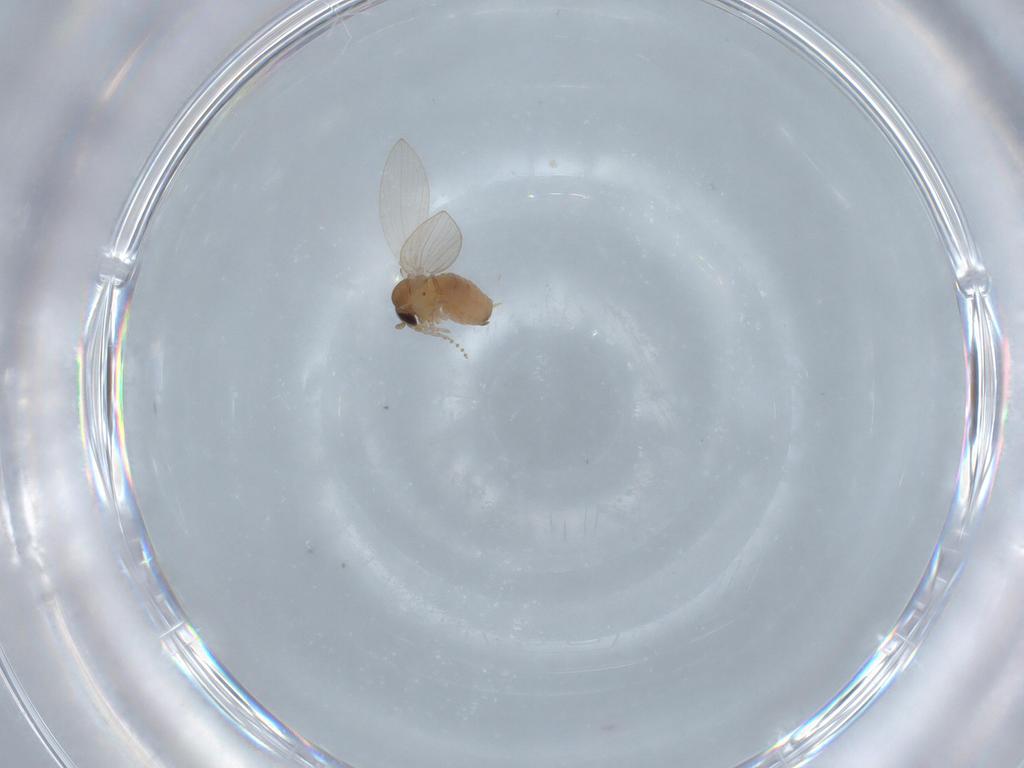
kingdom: Animalia
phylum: Arthropoda
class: Insecta
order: Diptera
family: Psychodidae
